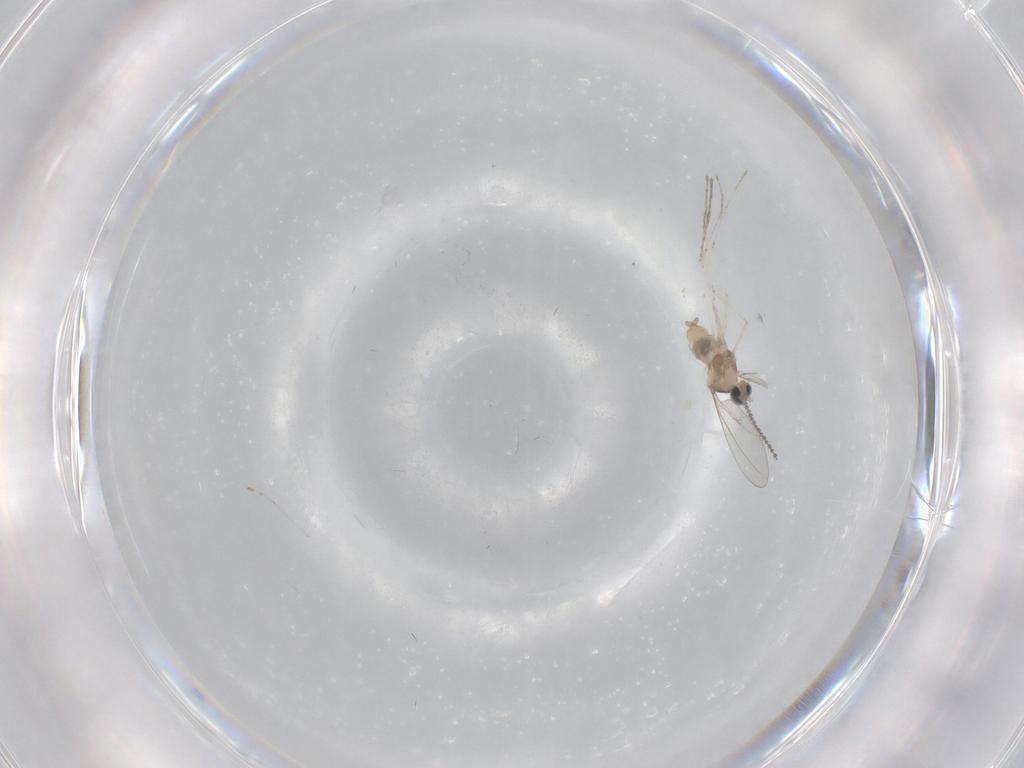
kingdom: Animalia
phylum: Arthropoda
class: Insecta
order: Diptera
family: Cecidomyiidae
